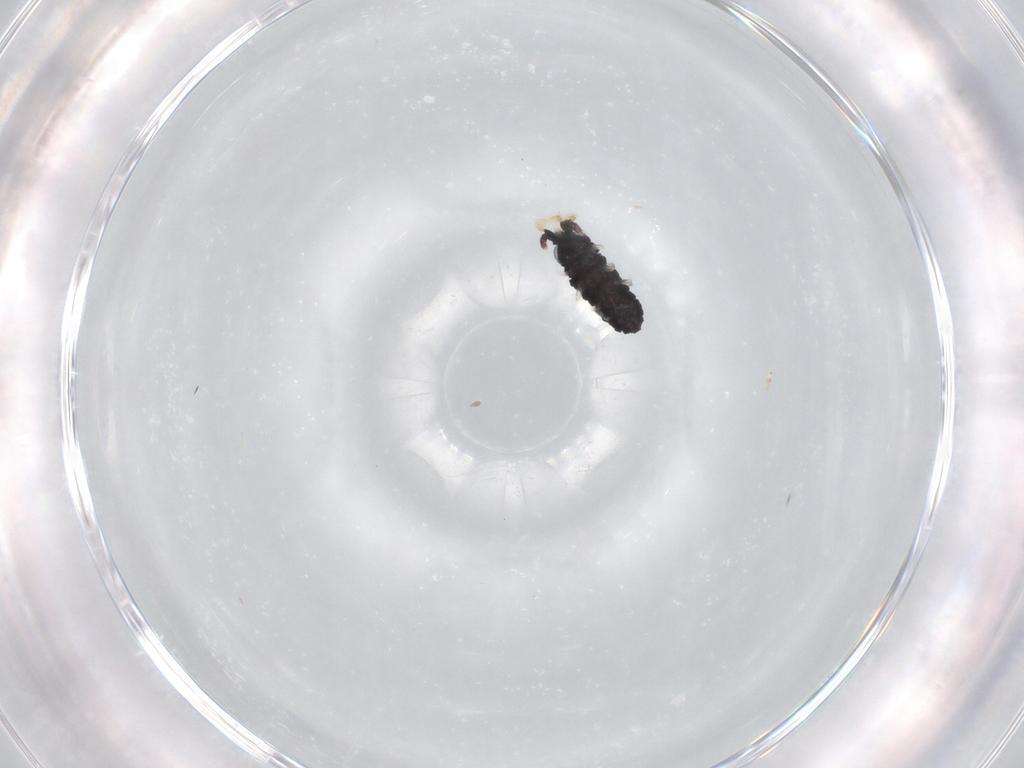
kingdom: Animalia
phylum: Arthropoda
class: Collembola
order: Poduromorpha
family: Neanuridae
